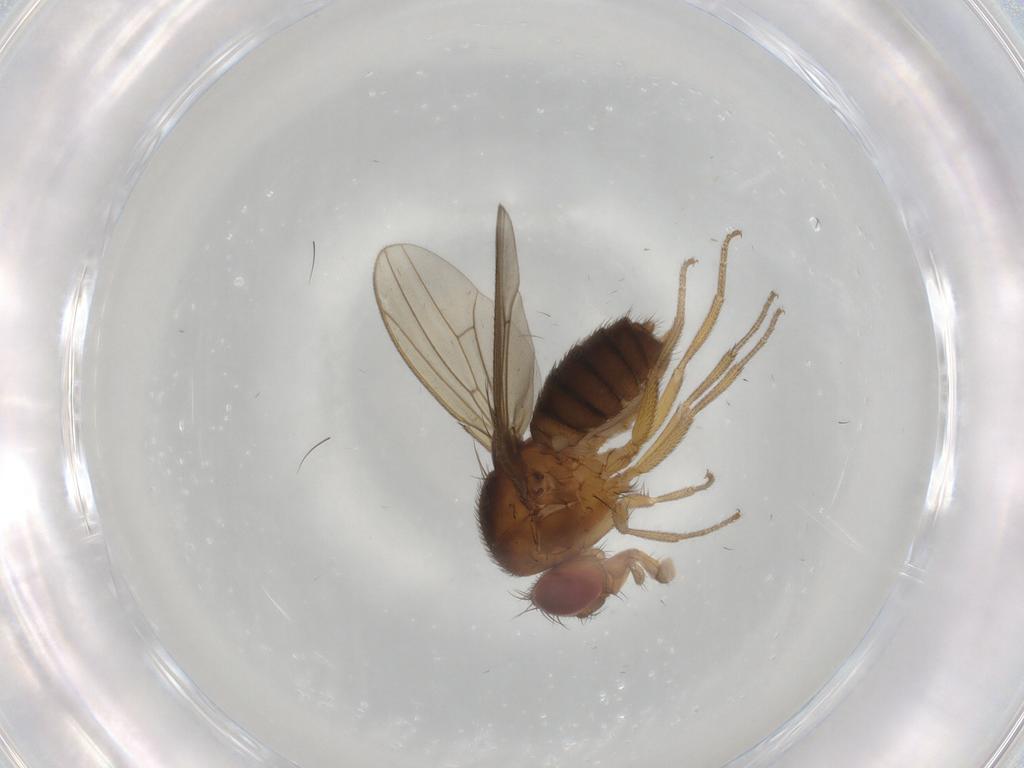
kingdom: Animalia
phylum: Arthropoda
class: Insecta
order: Diptera
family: Drosophilidae
